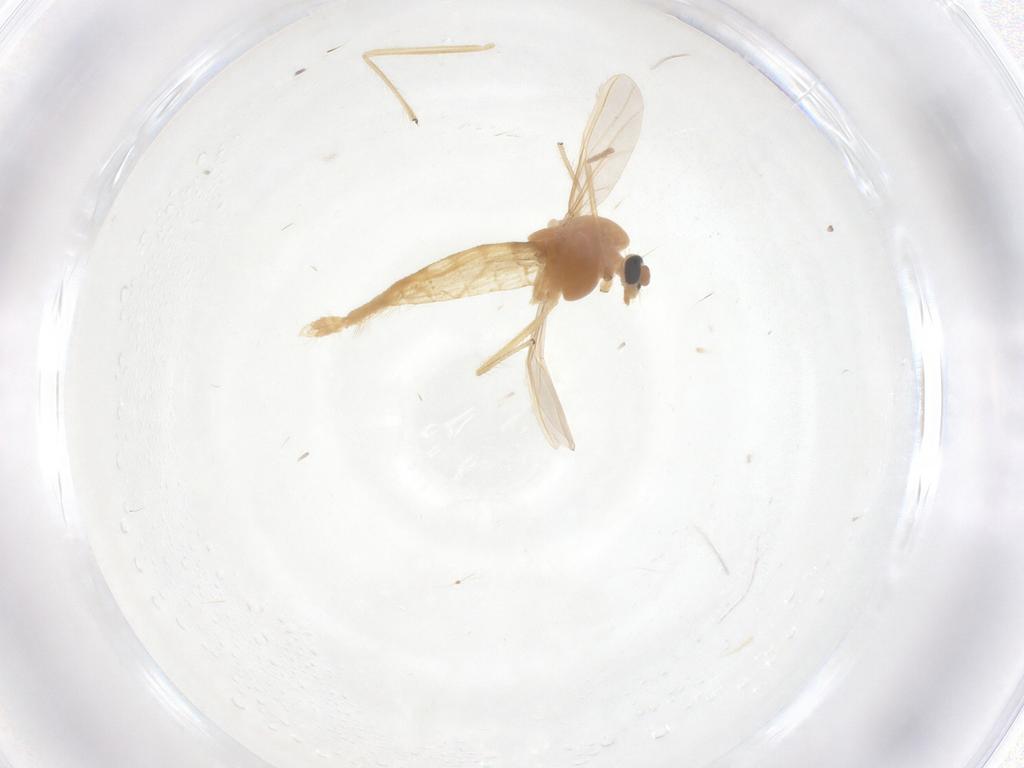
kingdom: Animalia
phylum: Arthropoda
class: Insecta
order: Diptera
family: Chironomidae
